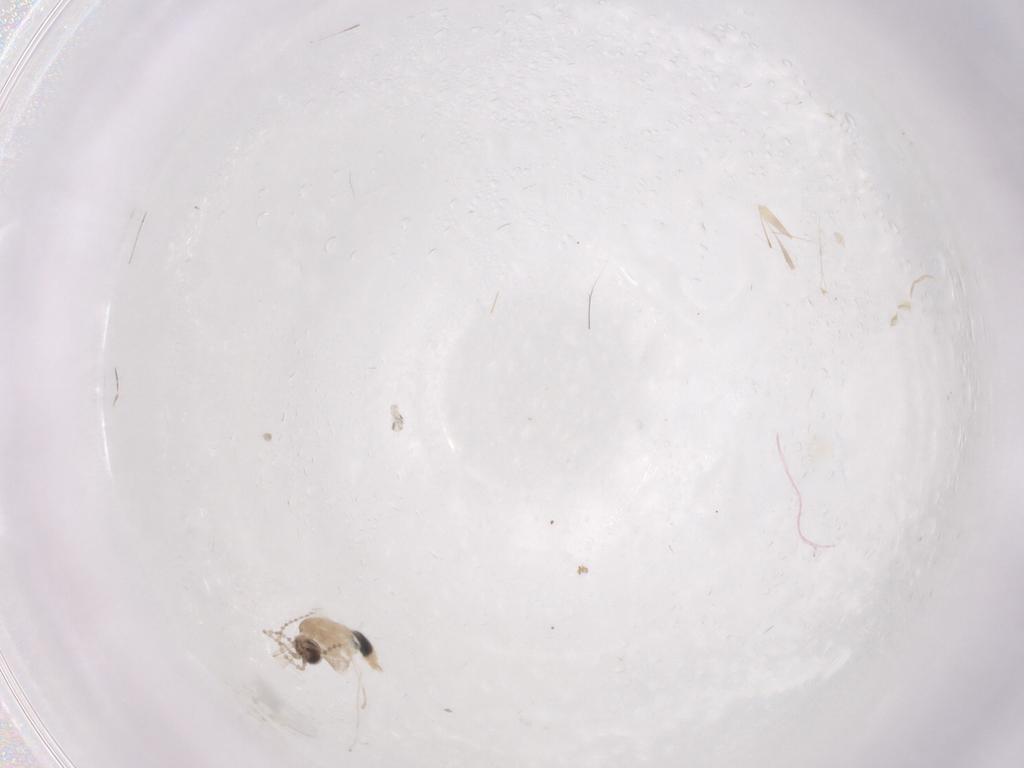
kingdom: Animalia
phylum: Arthropoda
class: Insecta
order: Diptera
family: Cecidomyiidae
